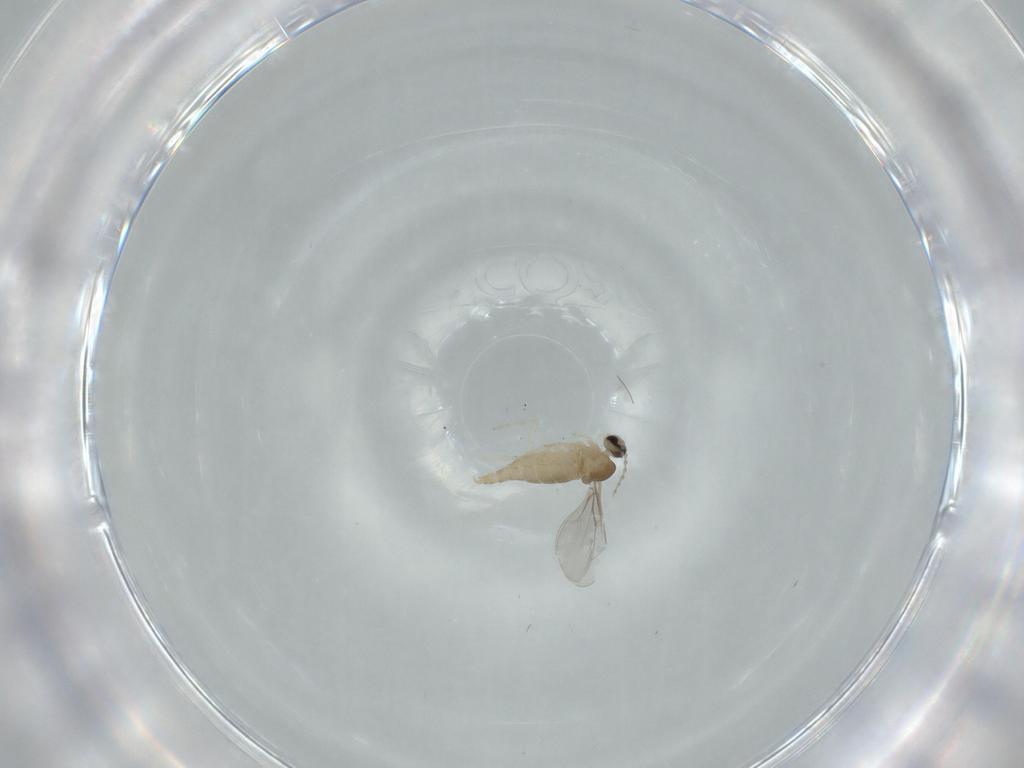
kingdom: Animalia
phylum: Arthropoda
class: Insecta
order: Diptera
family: Cecidomyiidae
